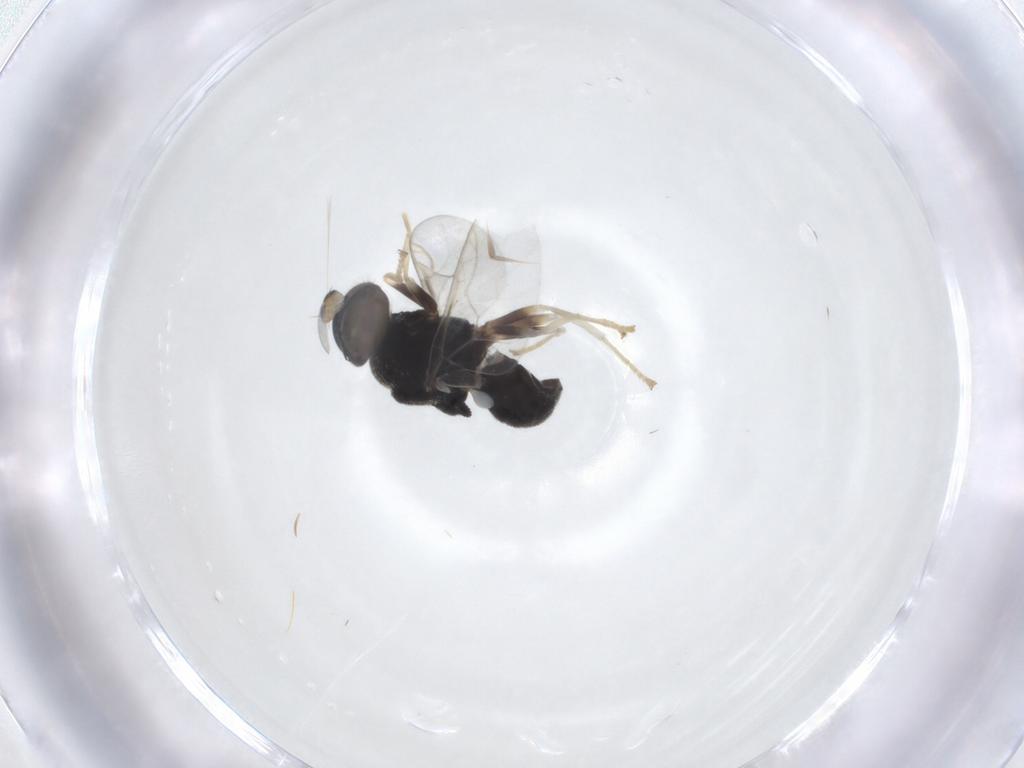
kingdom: Animalia
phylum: Arthropoda
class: Insecta
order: Diptera
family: Stratiomyidae
